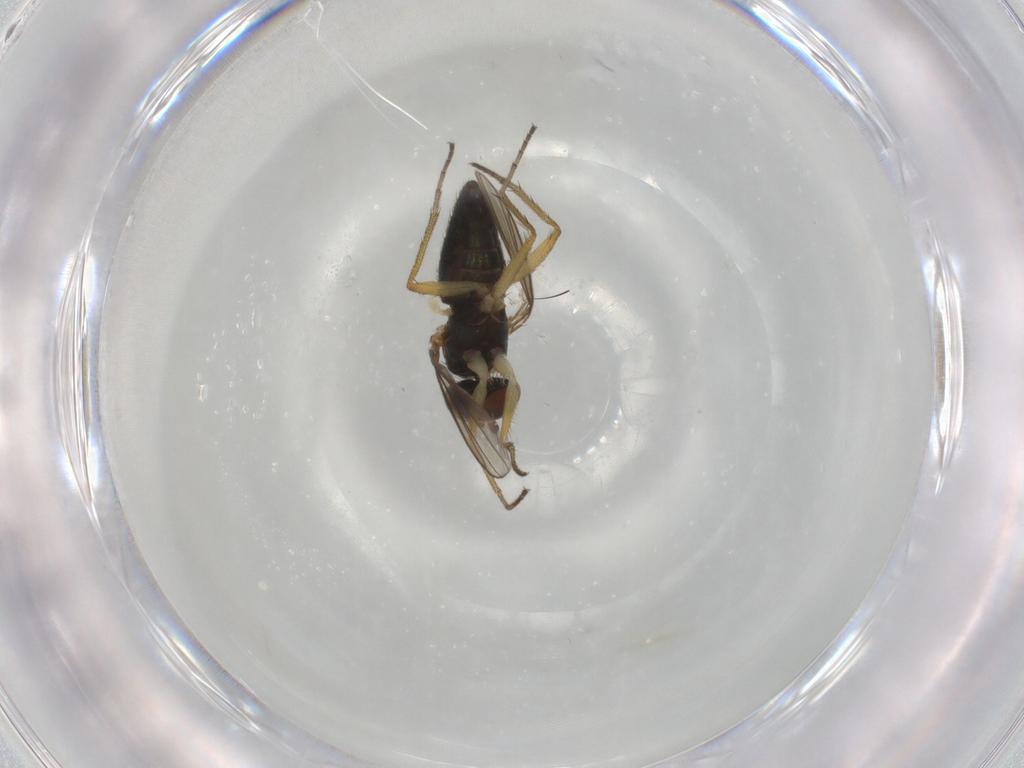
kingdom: Animalia
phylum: Arthropoda
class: Insecta
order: Diptera
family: Dolichopodidae
